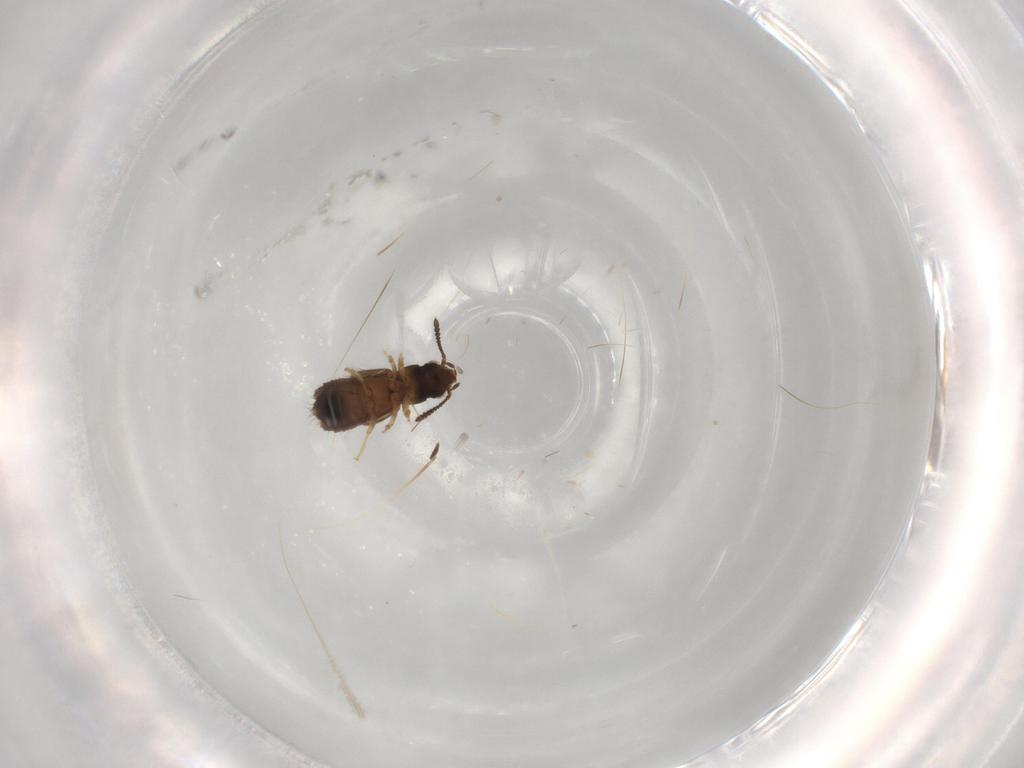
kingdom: Animalia
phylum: Arthropoda
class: Insecta
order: Coleoptera
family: Staphylinidae
